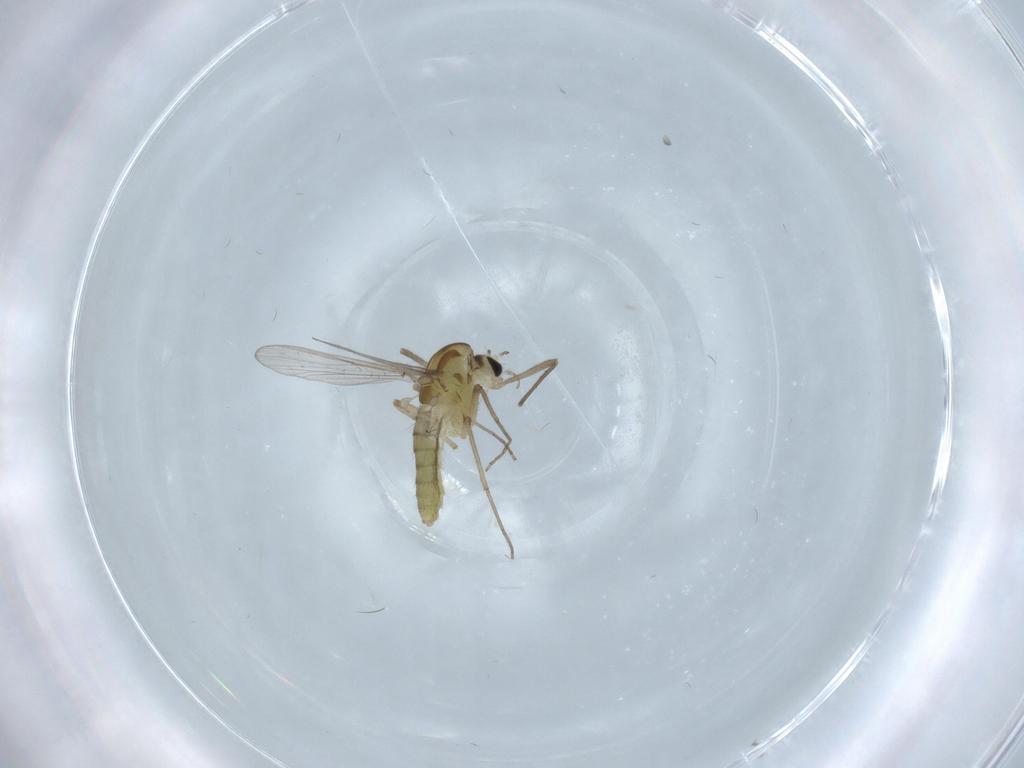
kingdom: Animalia
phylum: Arthropoda
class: Insecta
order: Diptera
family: Chironomidae
